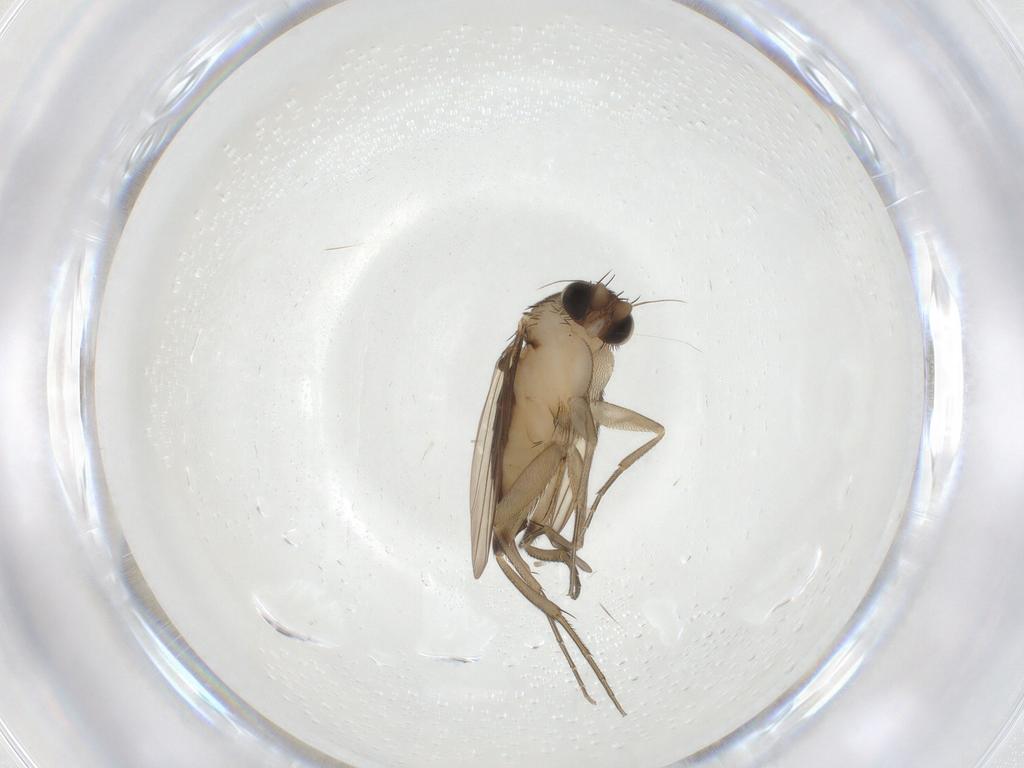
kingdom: Animalia
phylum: Arthropoda
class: Insecta
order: Diptera
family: Phoridae
